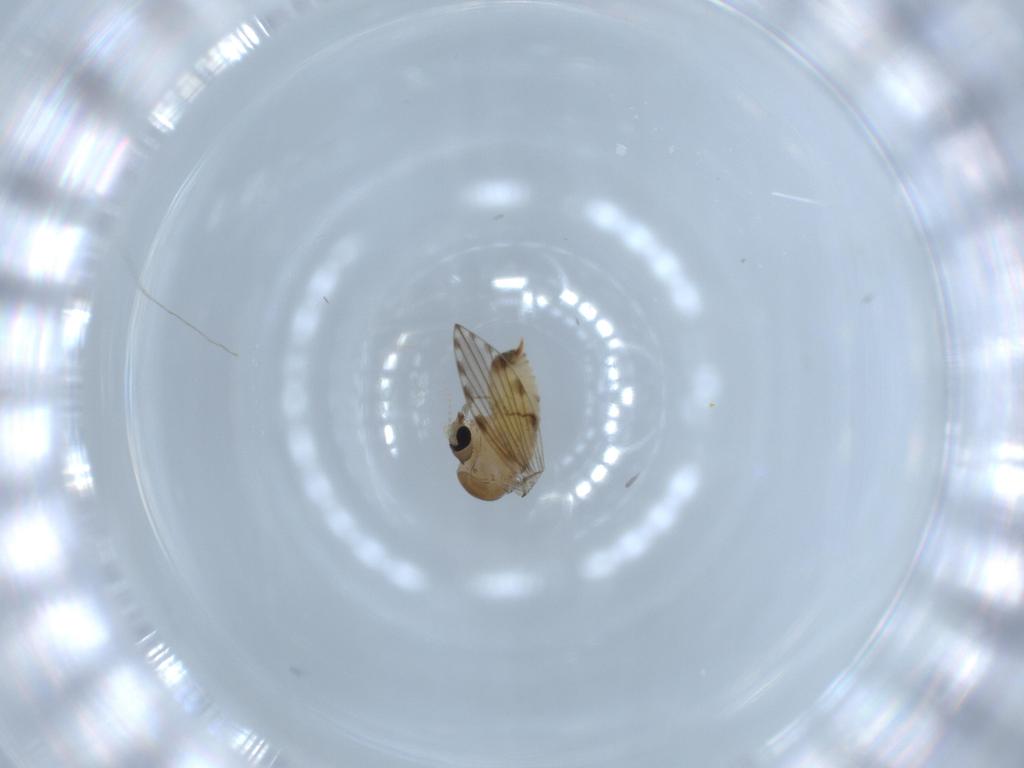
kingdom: Animalia
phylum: Arthropoda
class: Insecta
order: Diptera
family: Psychodidae
